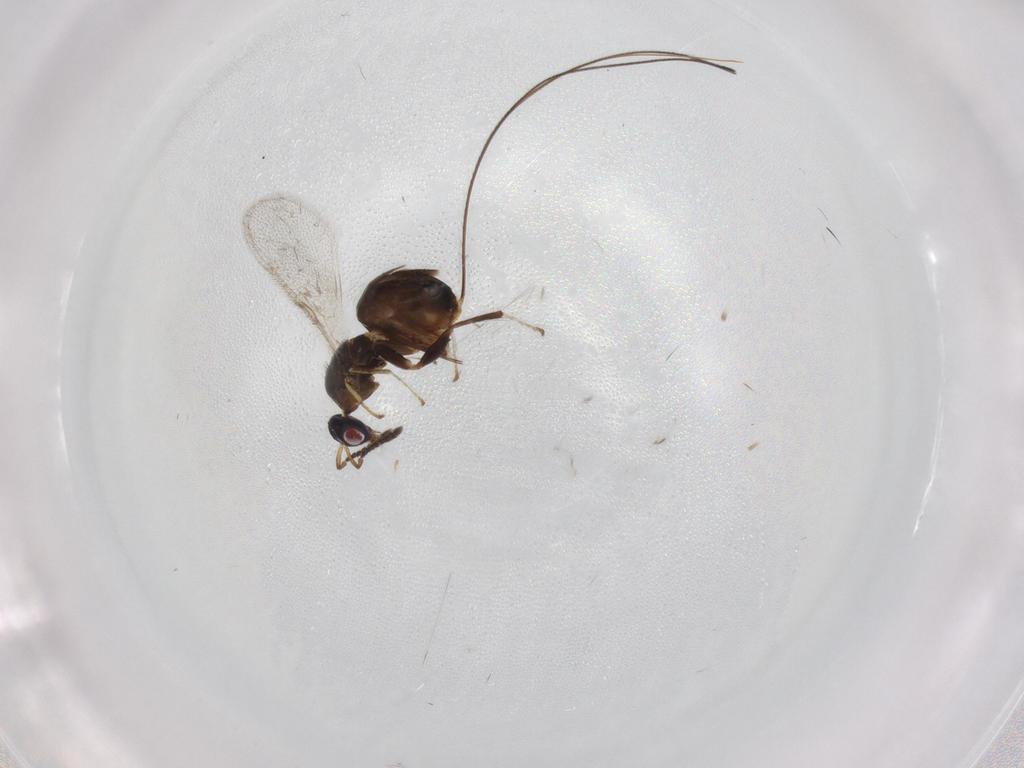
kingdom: Animalia
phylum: Arthropoda
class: Insecta
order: Hymenoptera
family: Torymidae
